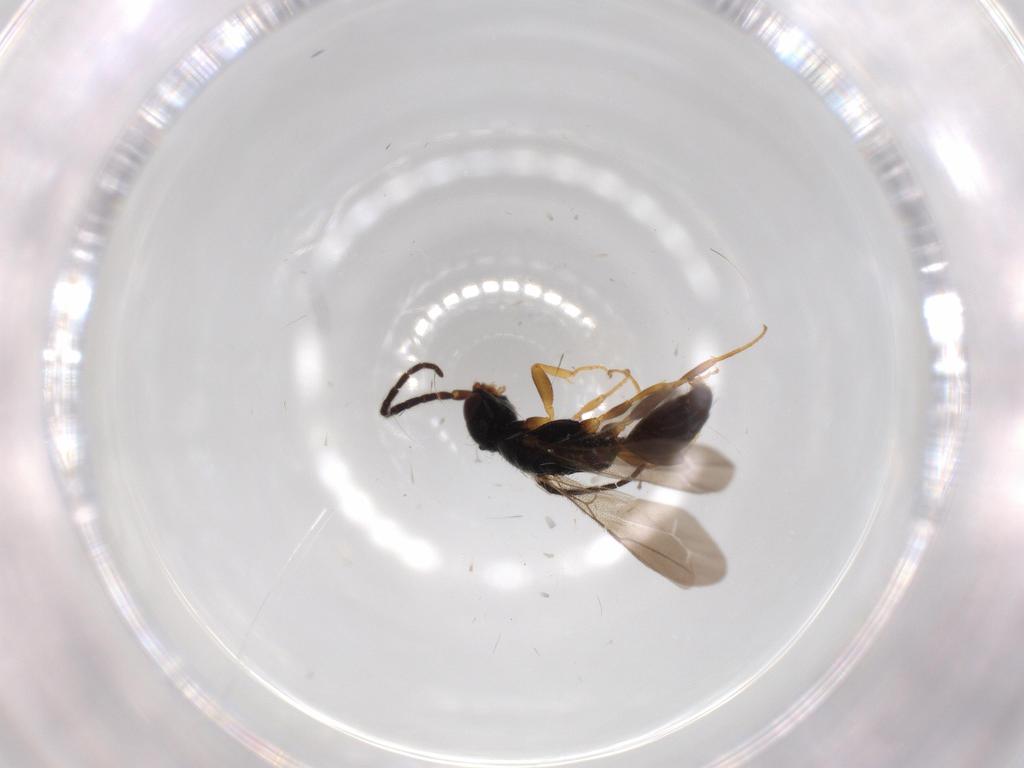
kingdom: Animalia
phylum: Arthropoda
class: Insecta
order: Hymenoptera
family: Bethylidae
